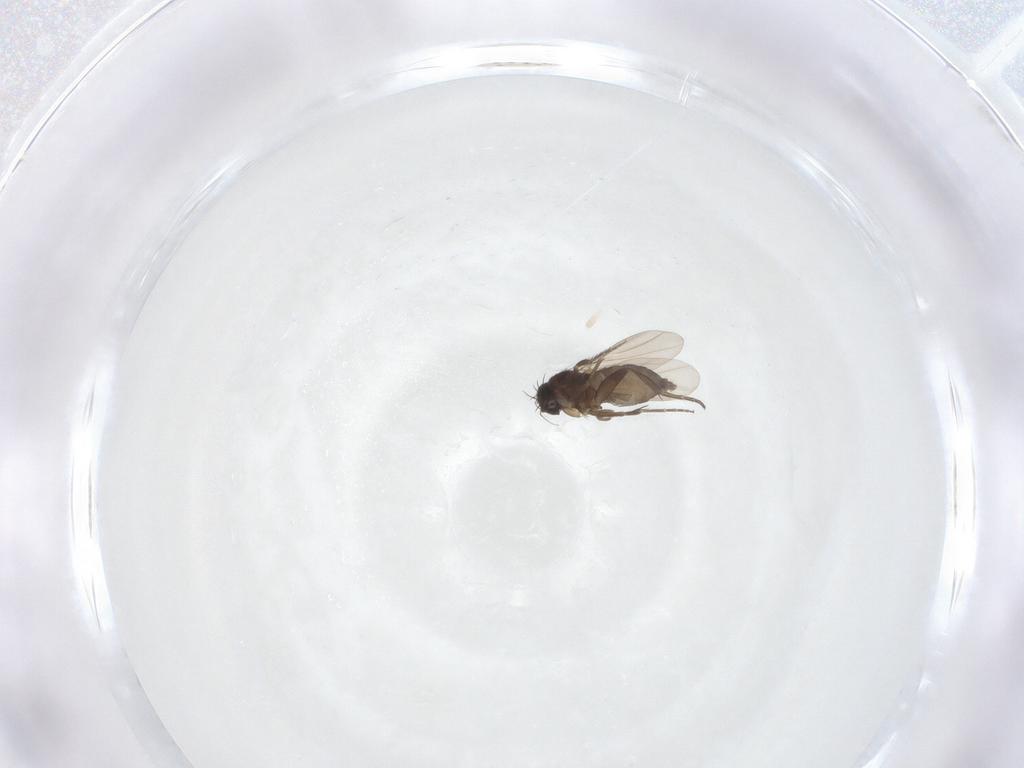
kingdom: Animalia
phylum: Arthropoda
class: Insecta
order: Diptera
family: Phoridae
